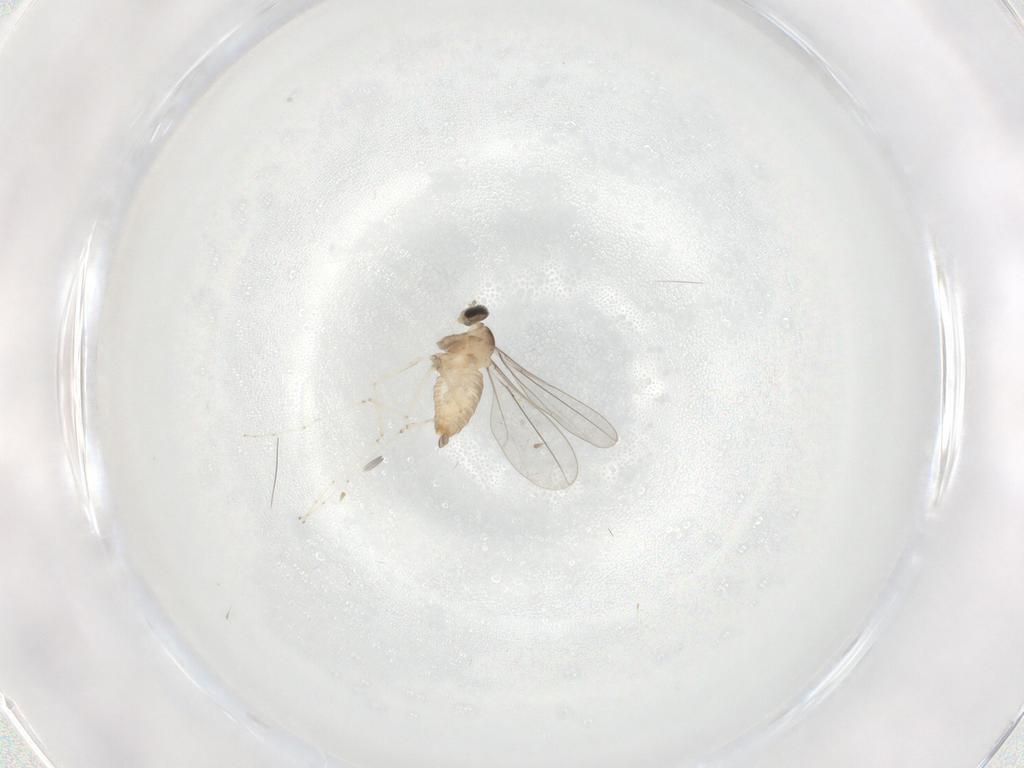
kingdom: Animalia
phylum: Arthropoda
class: Insecta
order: Diptera
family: Cecidomyiidae
